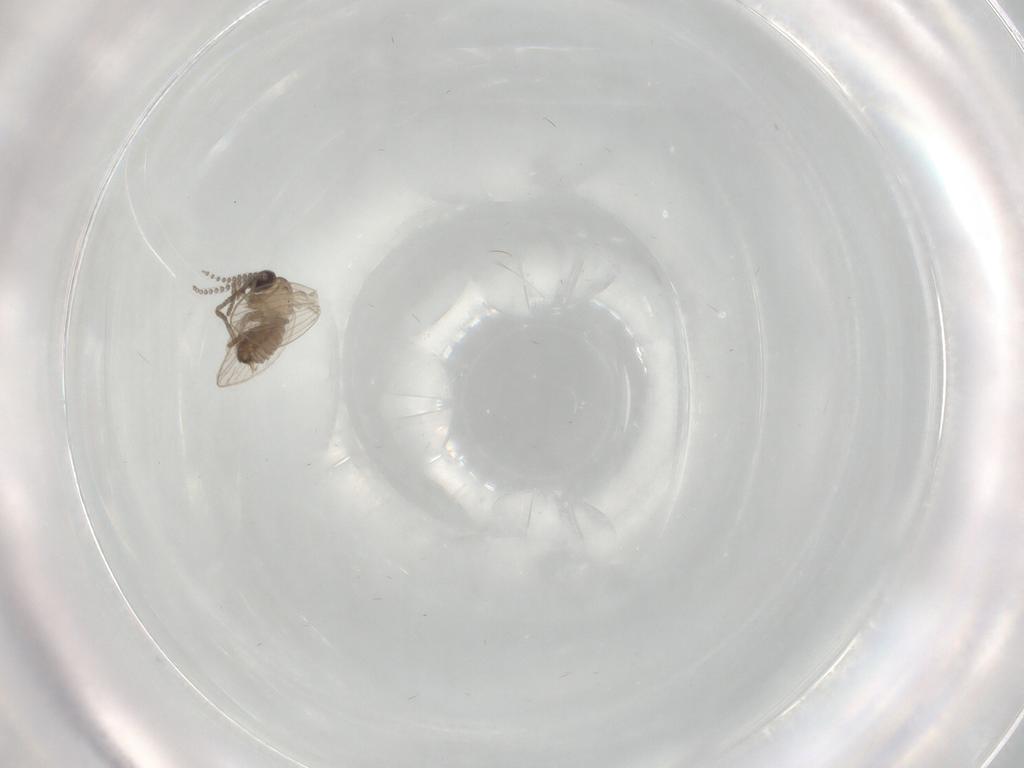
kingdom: Animalia
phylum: Arthropoda
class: Insecta
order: Diptera
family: Psychodidae
